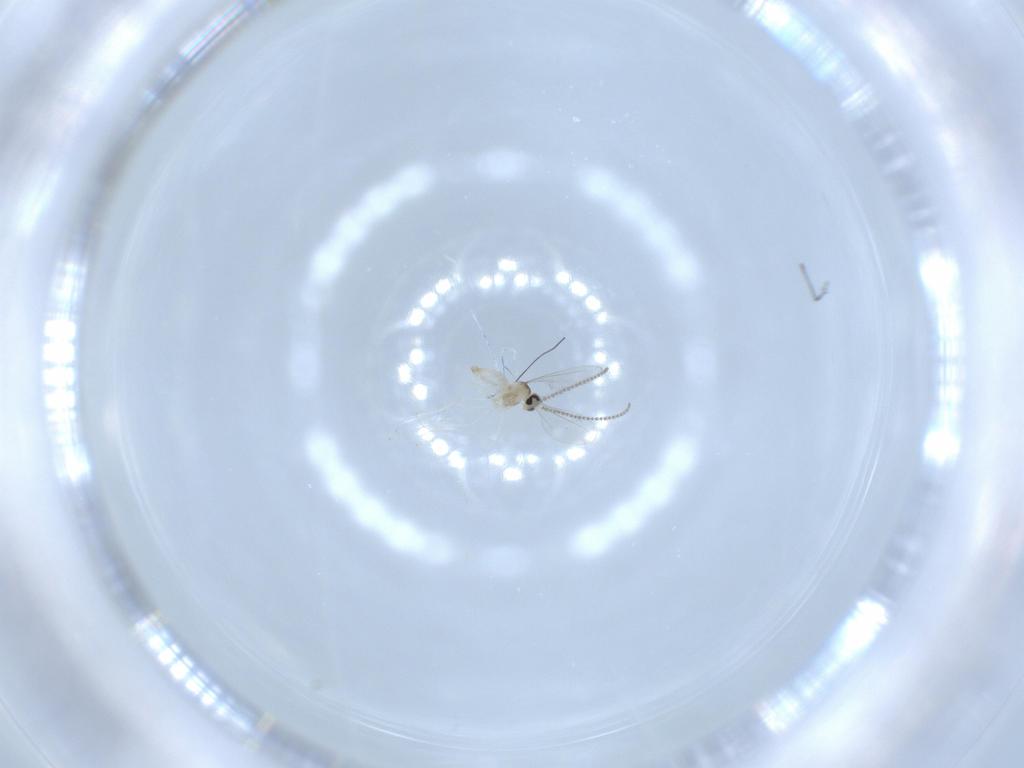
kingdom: Animalia
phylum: Arthropoda
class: Insecta
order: Diptera
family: Cecidomyiidae
